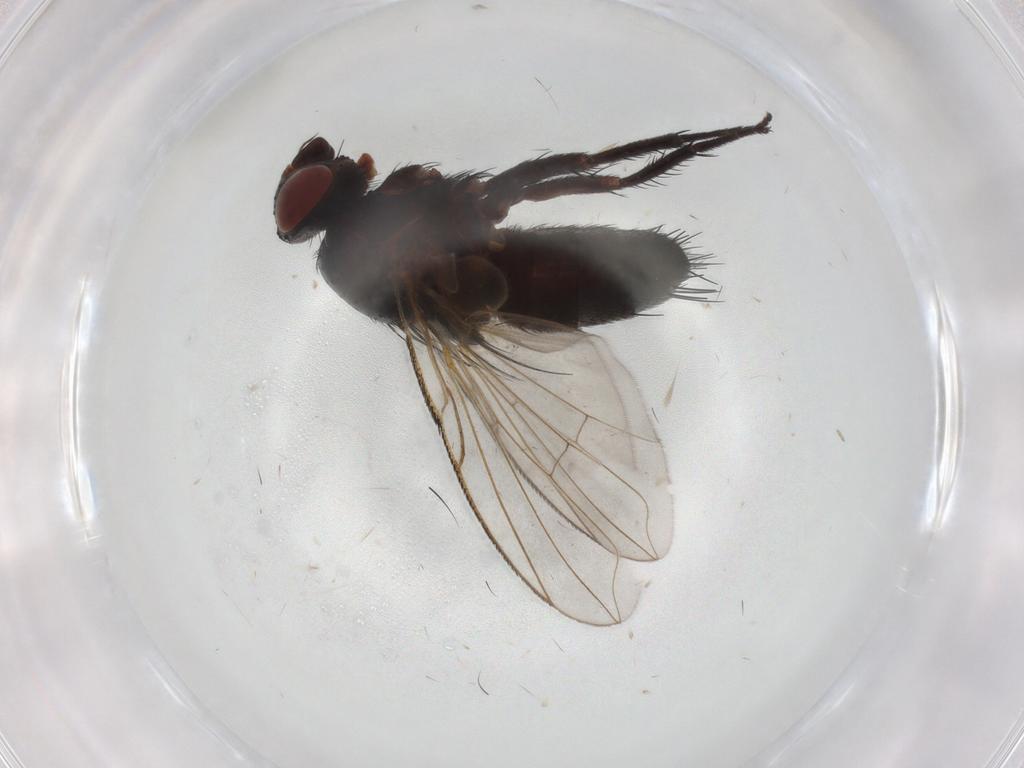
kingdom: Animalia
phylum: Arthropoda
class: Insecta
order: Diptera
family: Tachinidae
